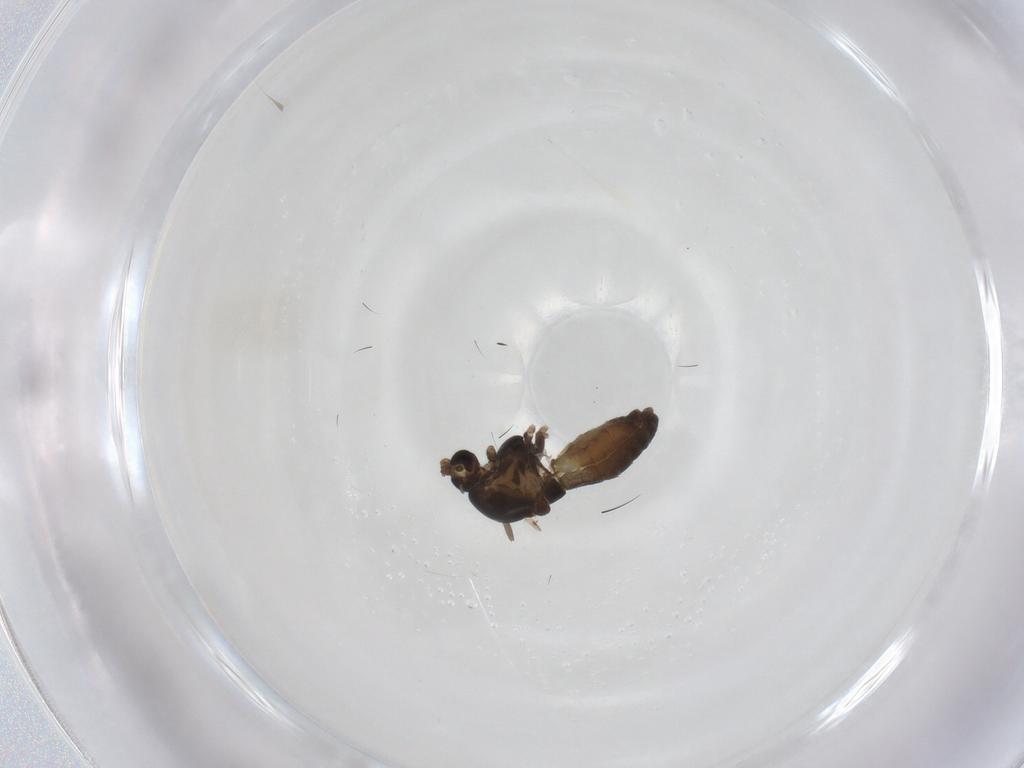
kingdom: Animalia
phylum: Arthropoda
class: Insecta
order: Diptera
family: Chironomidae
